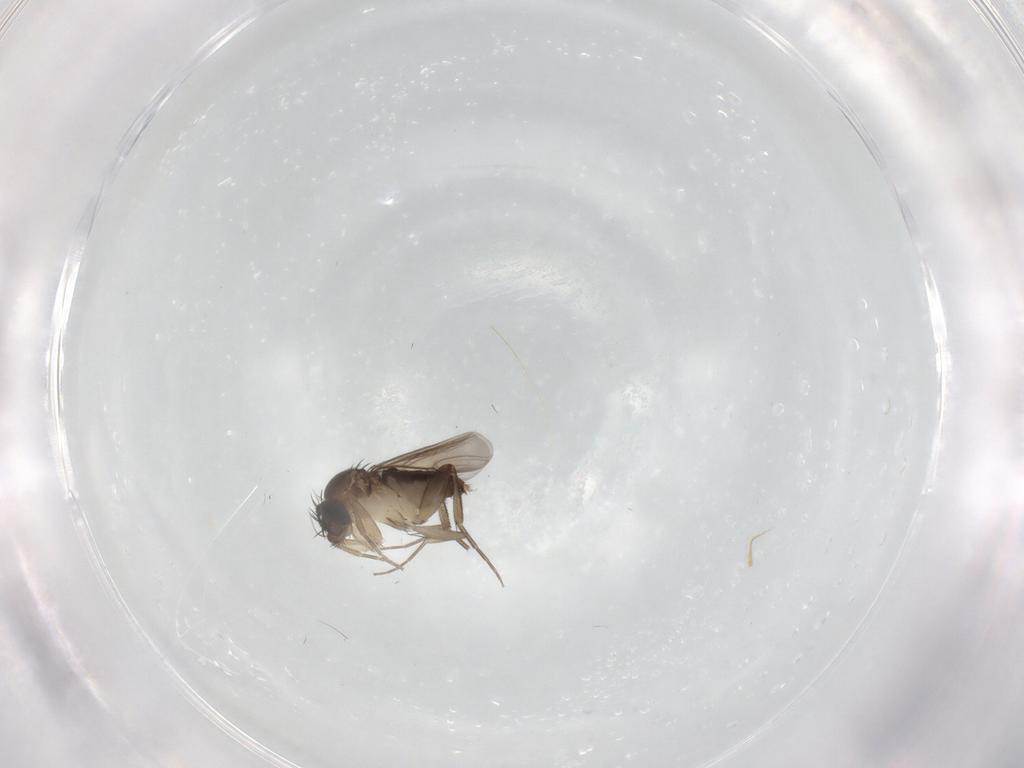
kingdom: Animalia
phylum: Arthropoda
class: Insecta
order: Diptera
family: Phoridae
